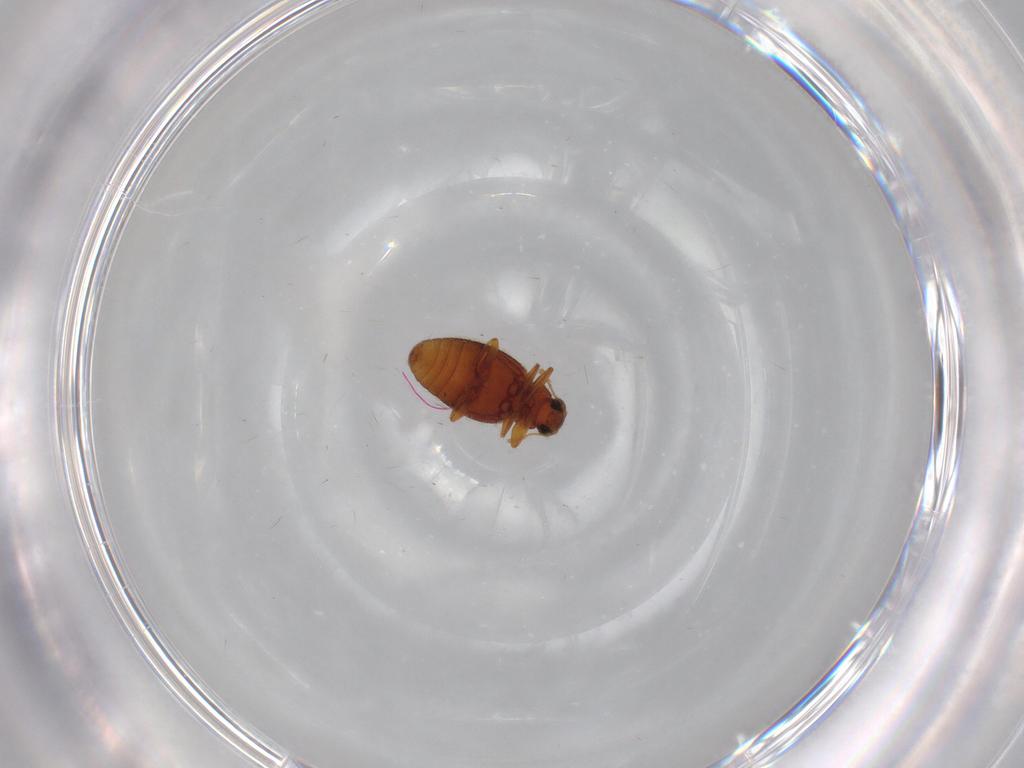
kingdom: Animalia
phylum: Arthropoda
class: Insecta
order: Coleoptera
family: Latridiidae
